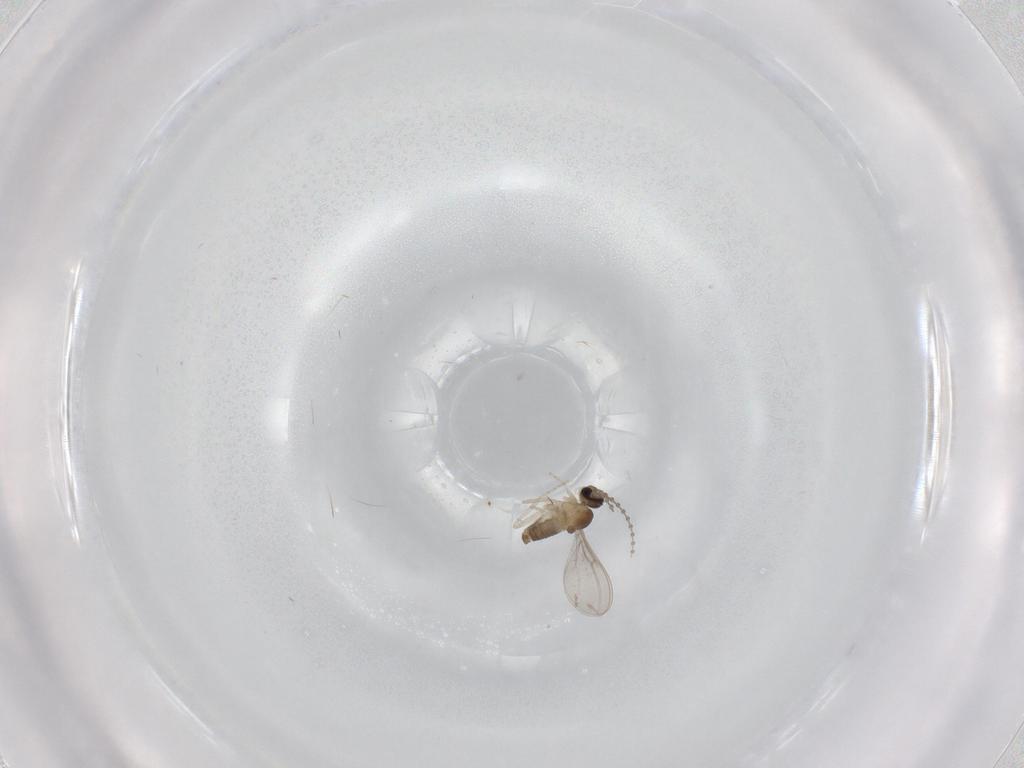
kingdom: Animalia
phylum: Arthropoda
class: Insecta
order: Diptera
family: Cecidomyiidae
